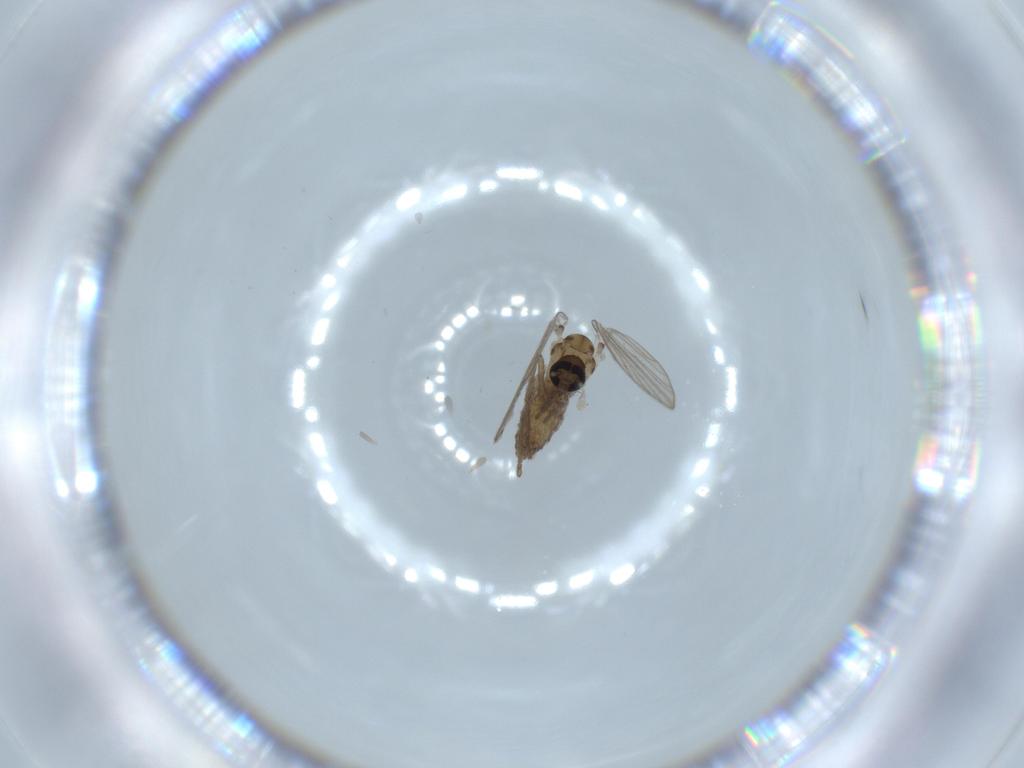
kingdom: Animalia
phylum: Arthropoda
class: Insecta
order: Diptera
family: Psychodidae
